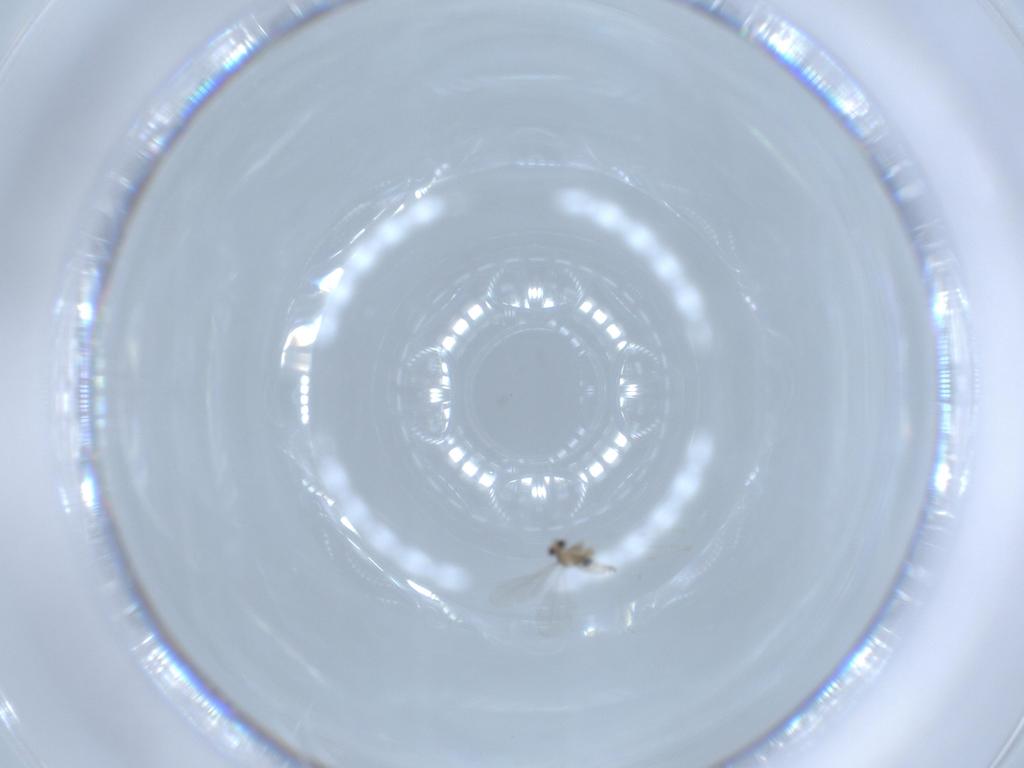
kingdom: Animalia
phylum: Arthropoda
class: Insecta
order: Diptera
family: Cecidomyiidae
